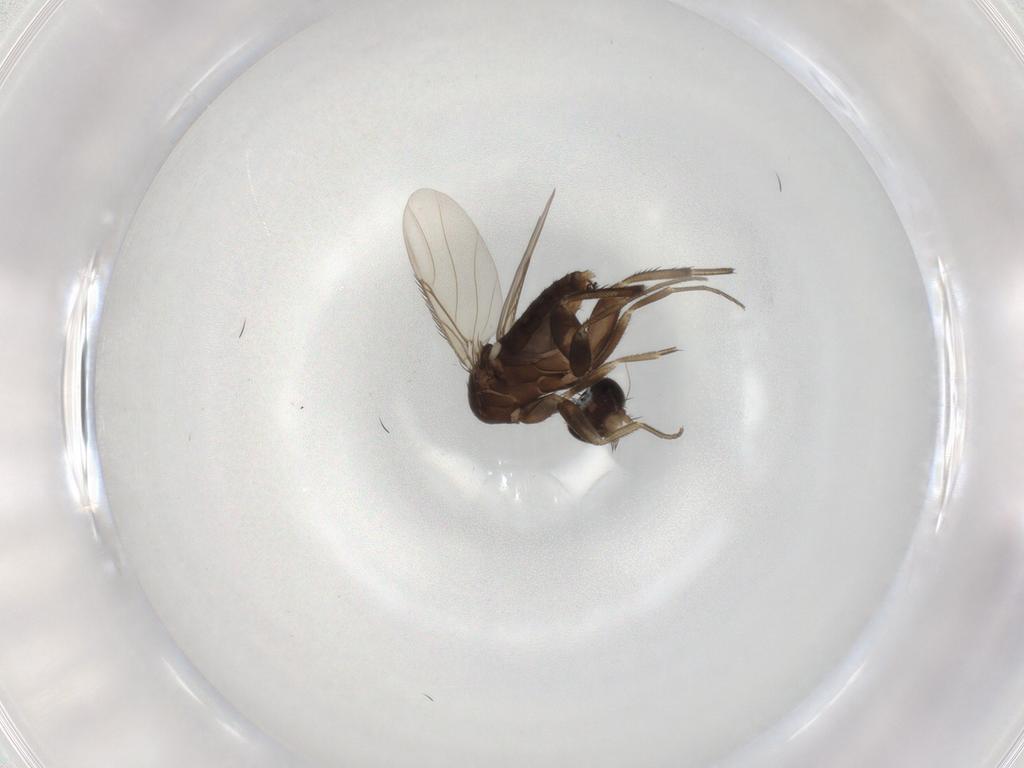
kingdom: Animalia
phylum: Arthropoda
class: Insecta
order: Diptera
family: Phoridae
